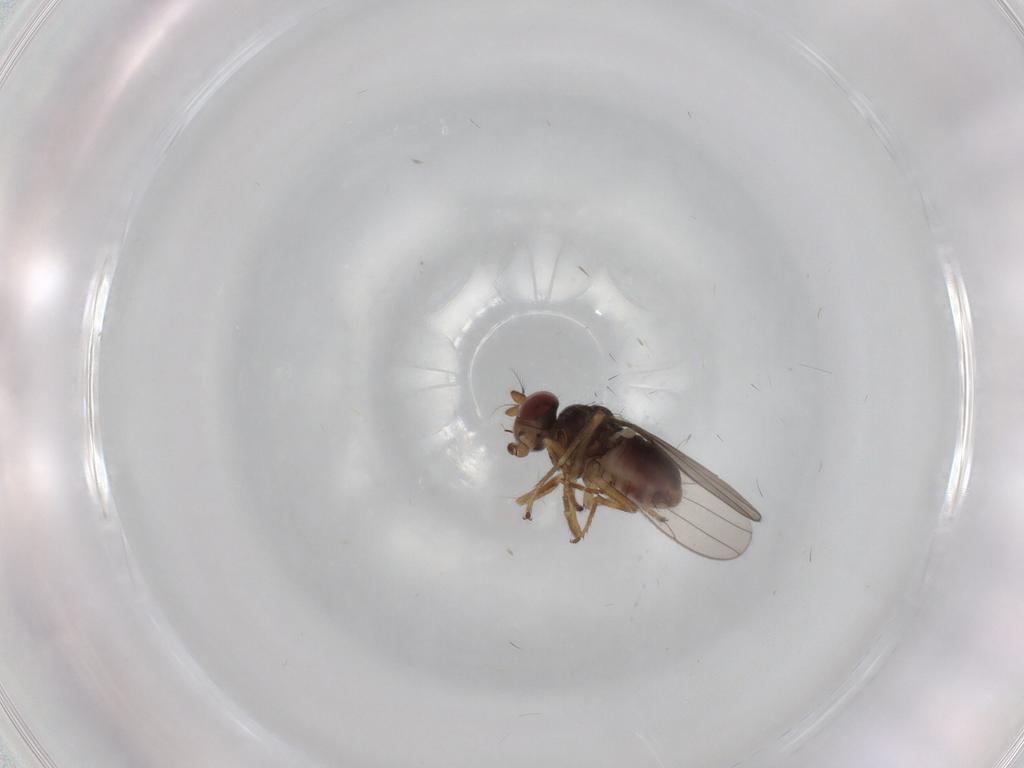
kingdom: Animalia
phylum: Arthropoda
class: Insecta
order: Diptera
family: Ephydridae
